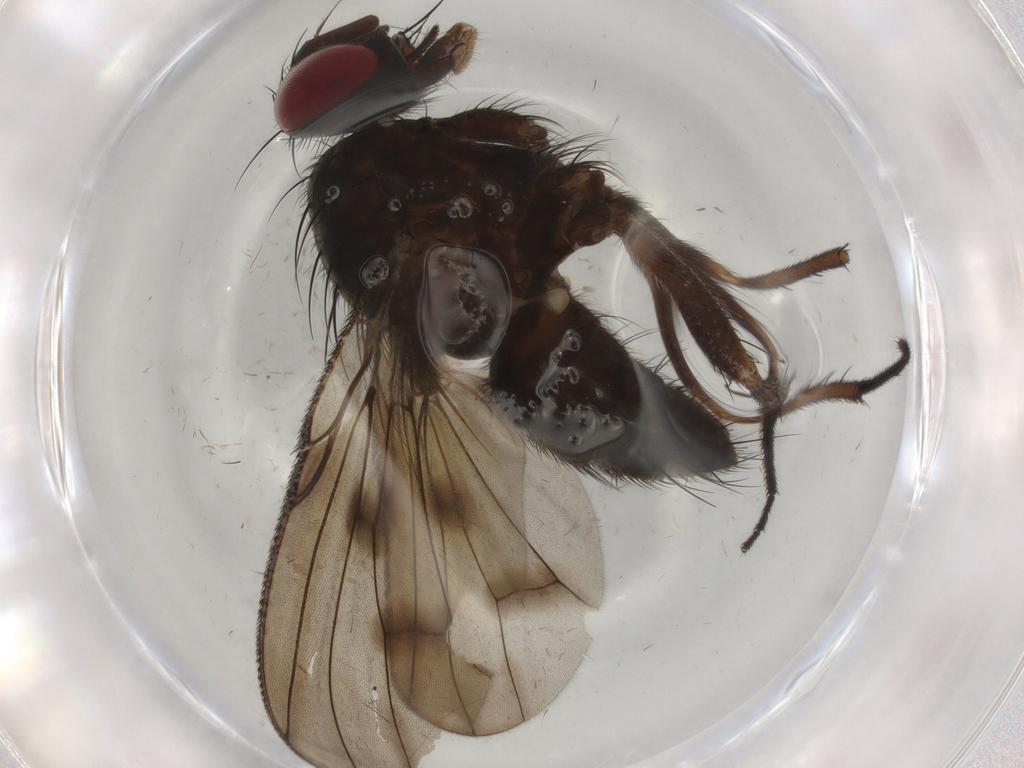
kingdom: Animalia
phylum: Arthropoda
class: Insecta
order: Diptera
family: Muscidae
